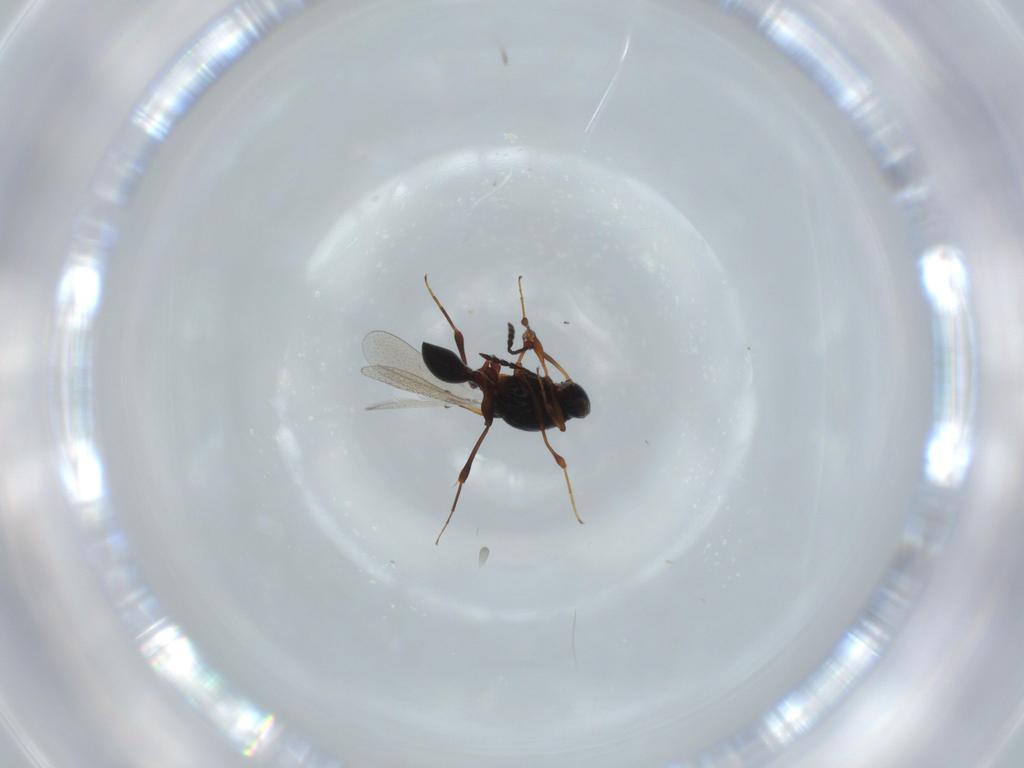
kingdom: Animalia
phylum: Arthropoda
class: Insecta
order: Hymenoptera
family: Platygastridae
